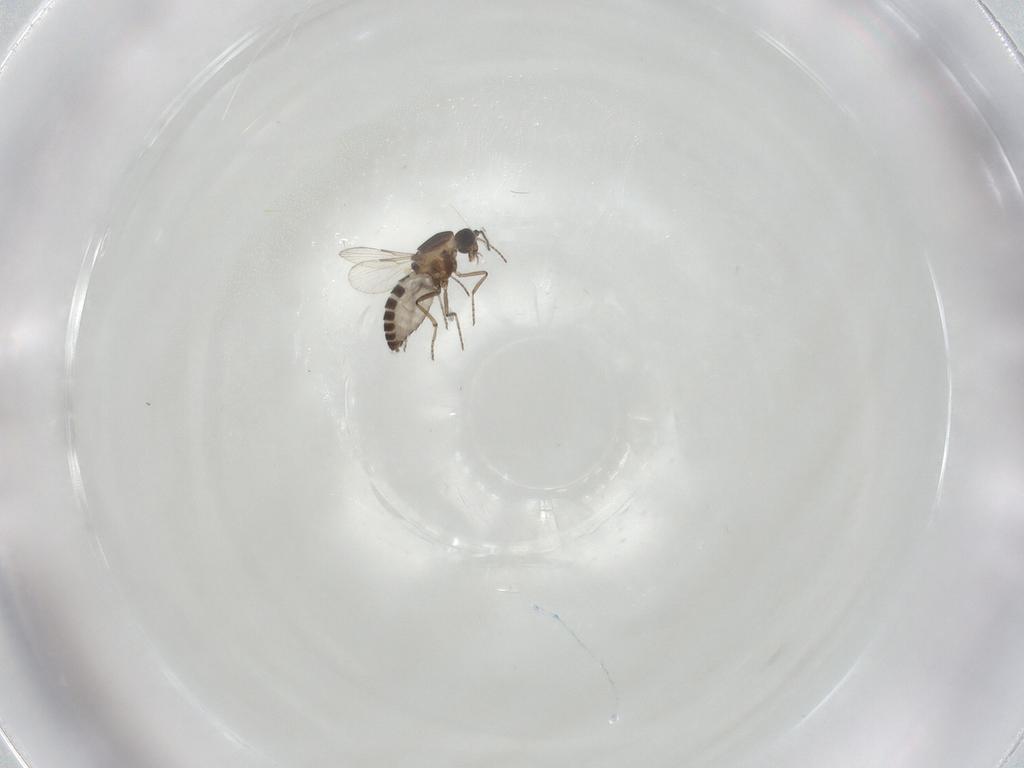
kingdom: Animalia
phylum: Arthropoda
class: Insecta
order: Diptera
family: Ceratopogonidae
